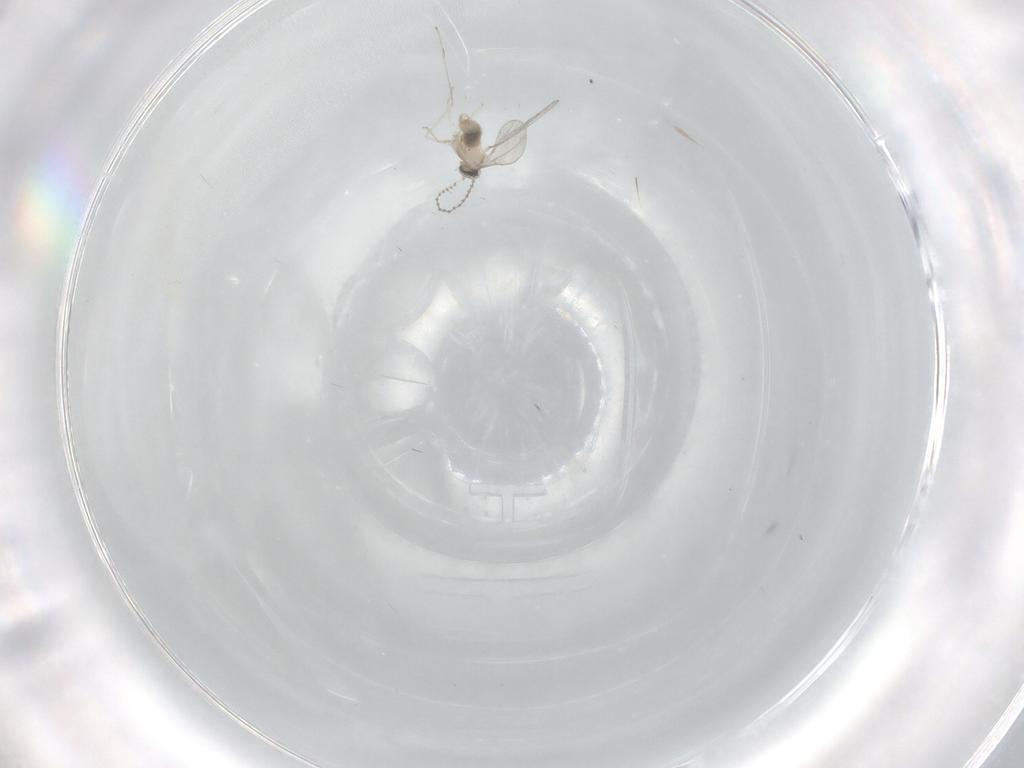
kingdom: Animalia
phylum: Arthropoda
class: Insecta
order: Diptera
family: Cecidomyiidae
